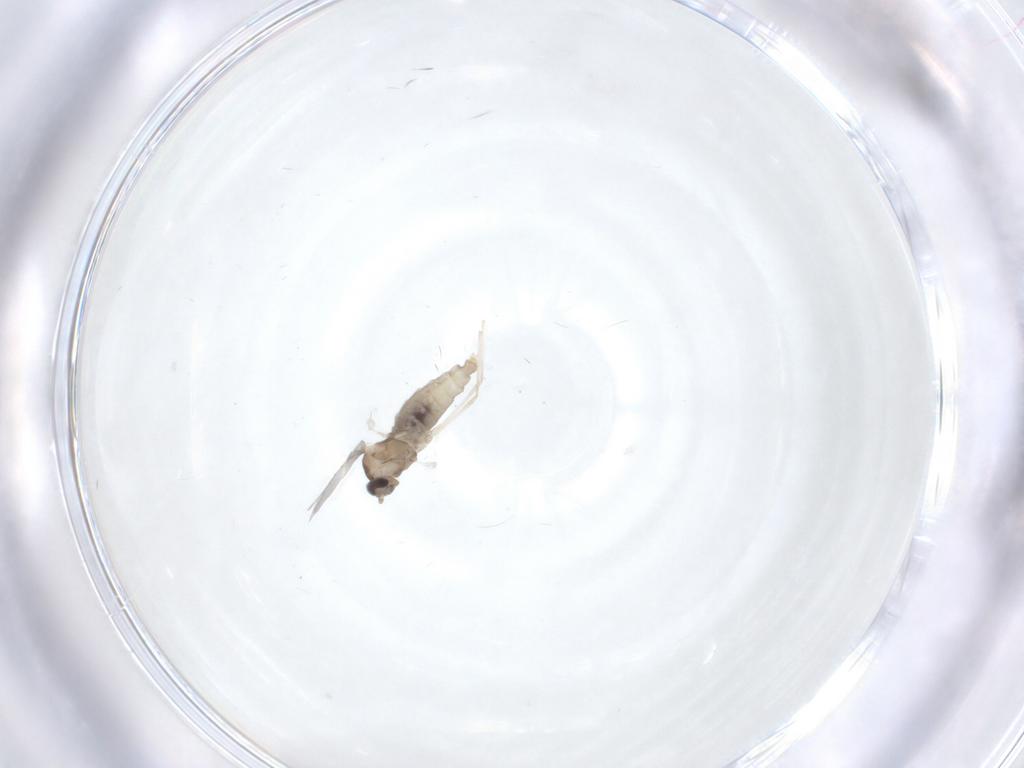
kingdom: Animalia
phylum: Arthropoda
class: Insecta
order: Diptera
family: Cecidomyiidae
